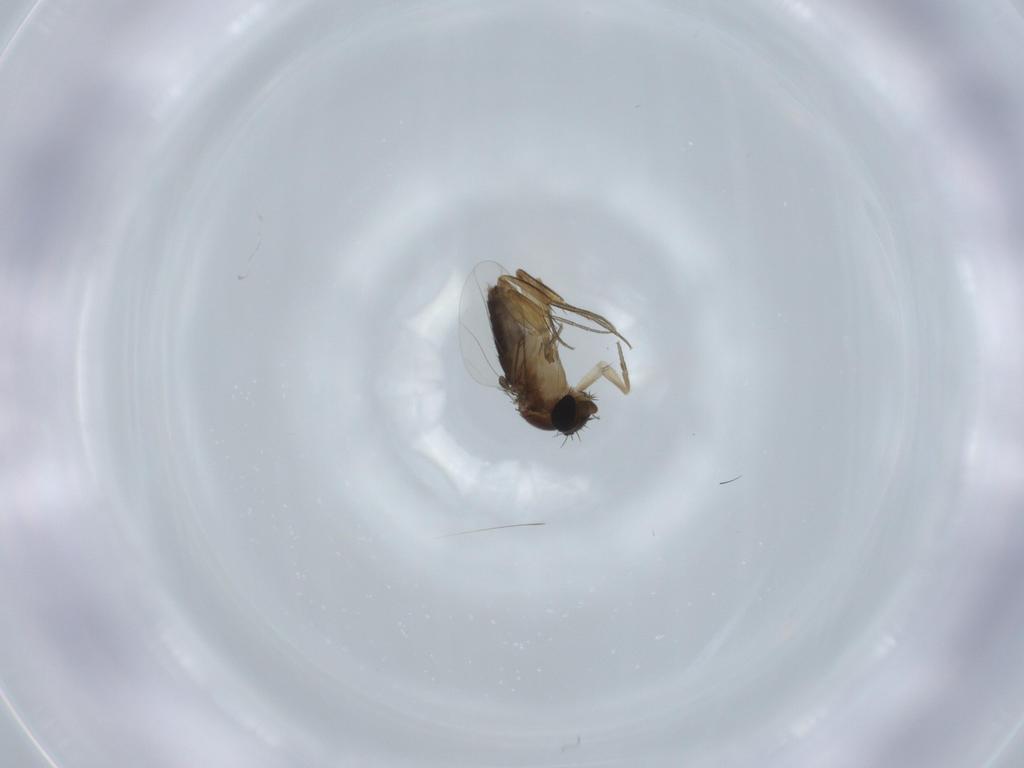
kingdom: Animalia
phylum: Arthropoda
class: Insecta
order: Diptera
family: Phoridae
